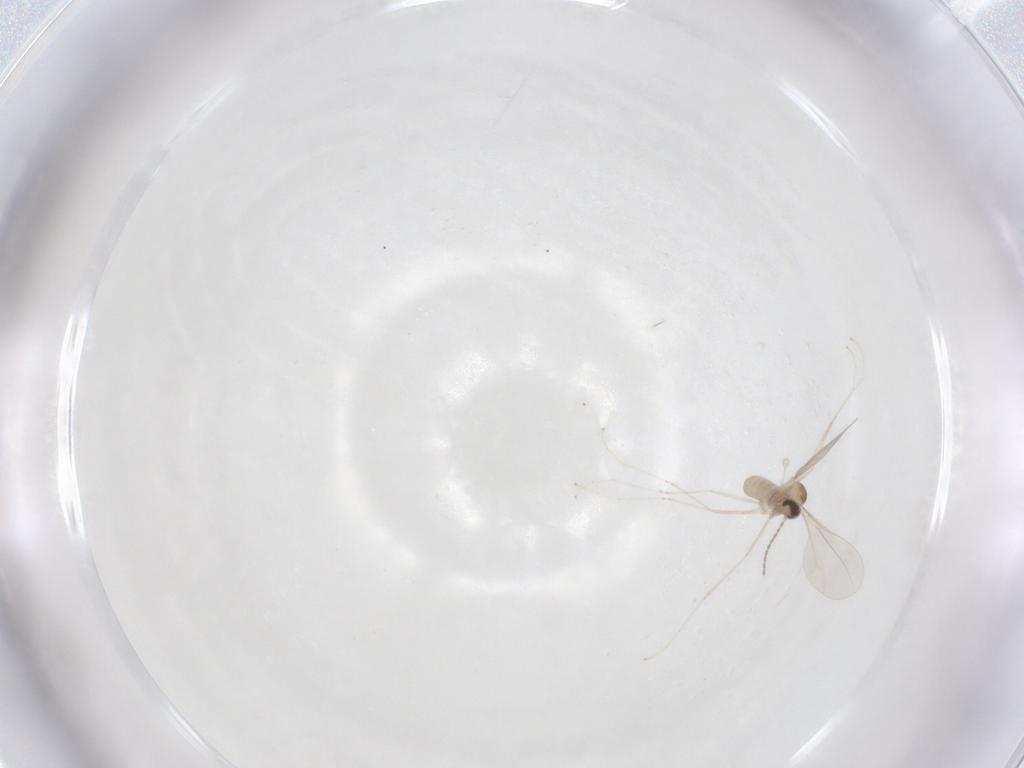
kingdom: Animalia
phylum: Arthropoda
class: Insecta
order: Diptera
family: Cecidomyiidae
